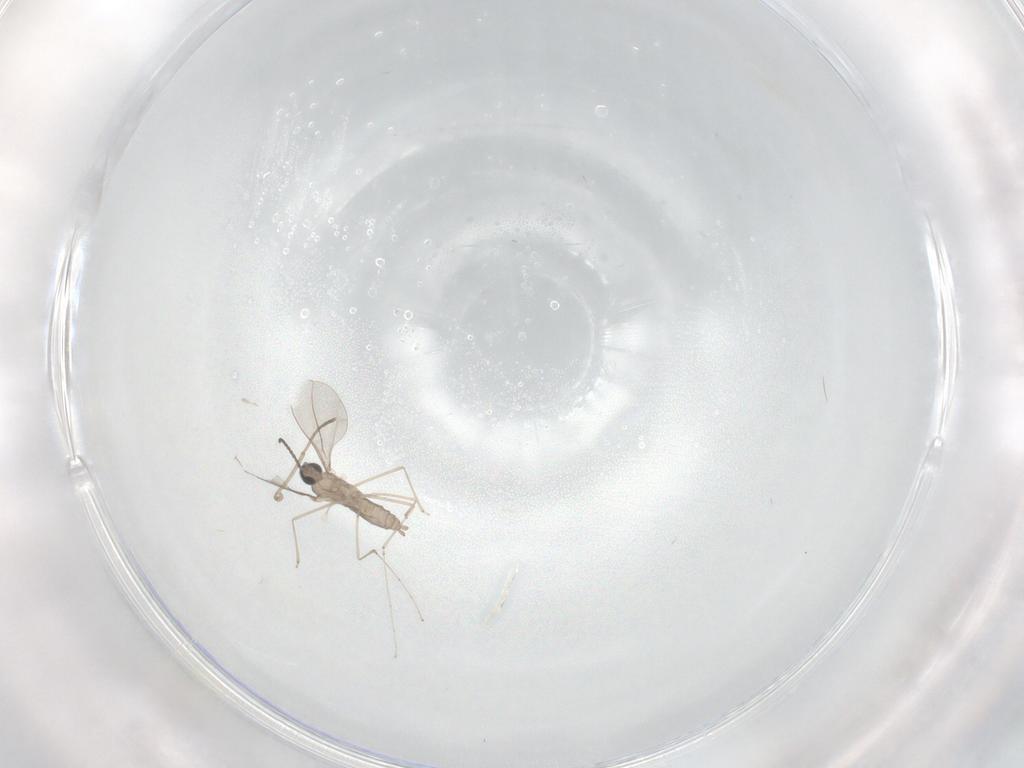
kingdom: Animalia
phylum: Arthropoda
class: Insecta
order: Diptera
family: Cecidomyiidae
